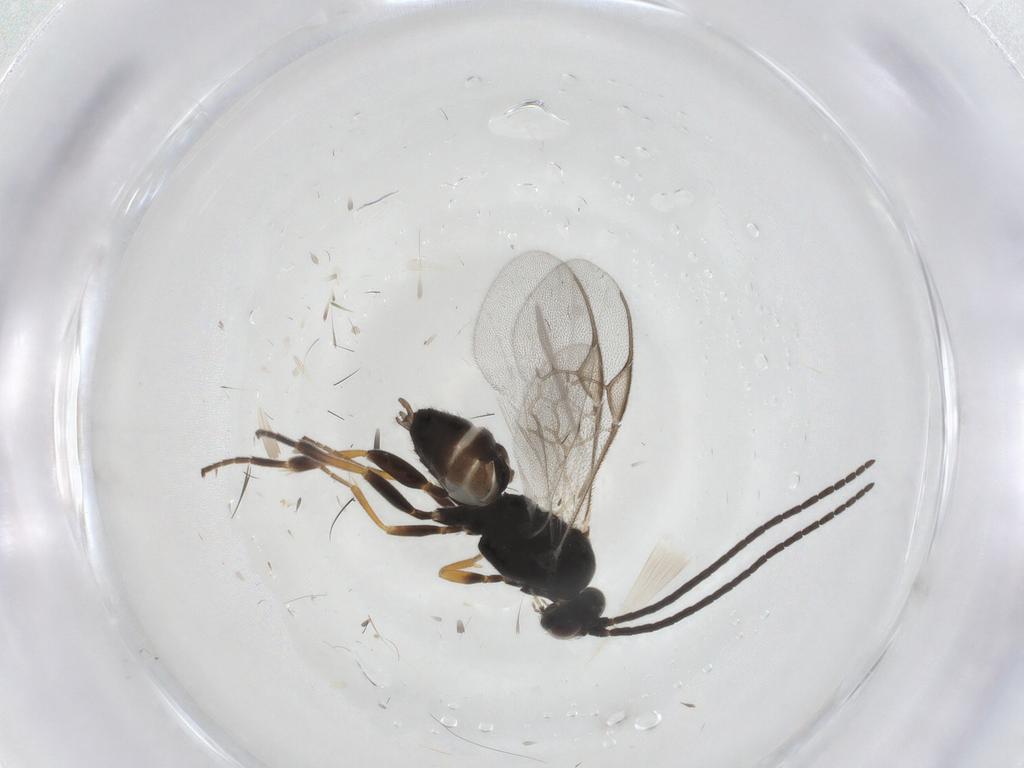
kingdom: Animalia
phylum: Arthropoda
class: Insecta
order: Hymenoptera
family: Braconidae
